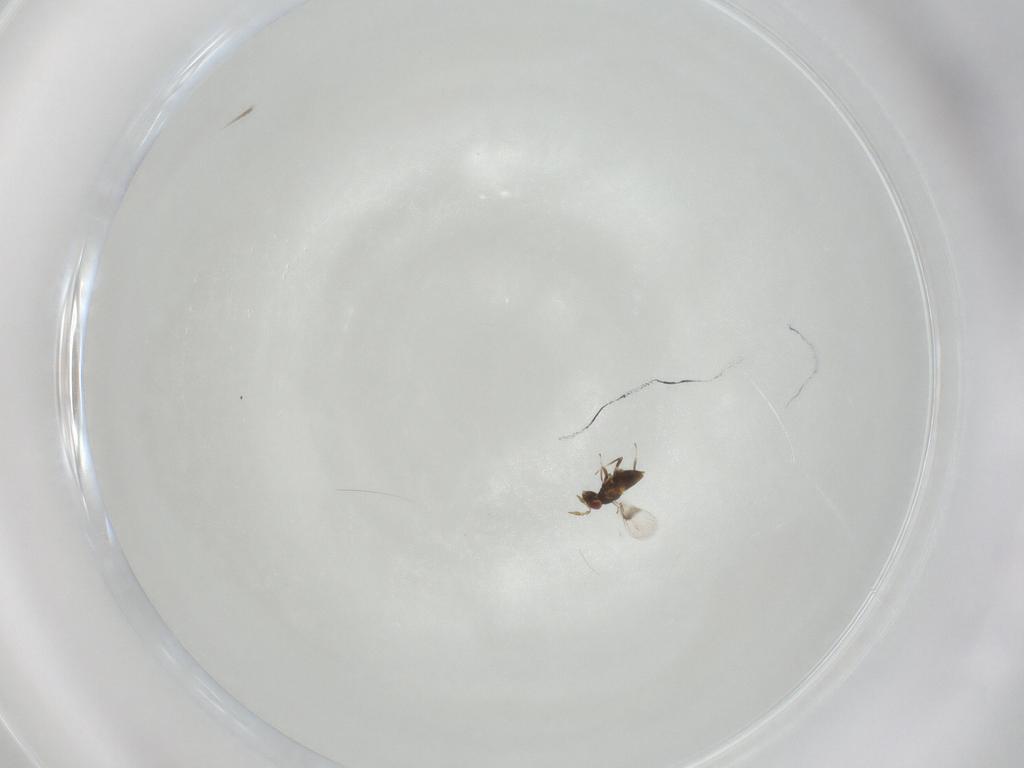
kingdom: Animalia
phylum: Arthropoda
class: Insecta
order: Hymenoptera
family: Trichogrammatidae
